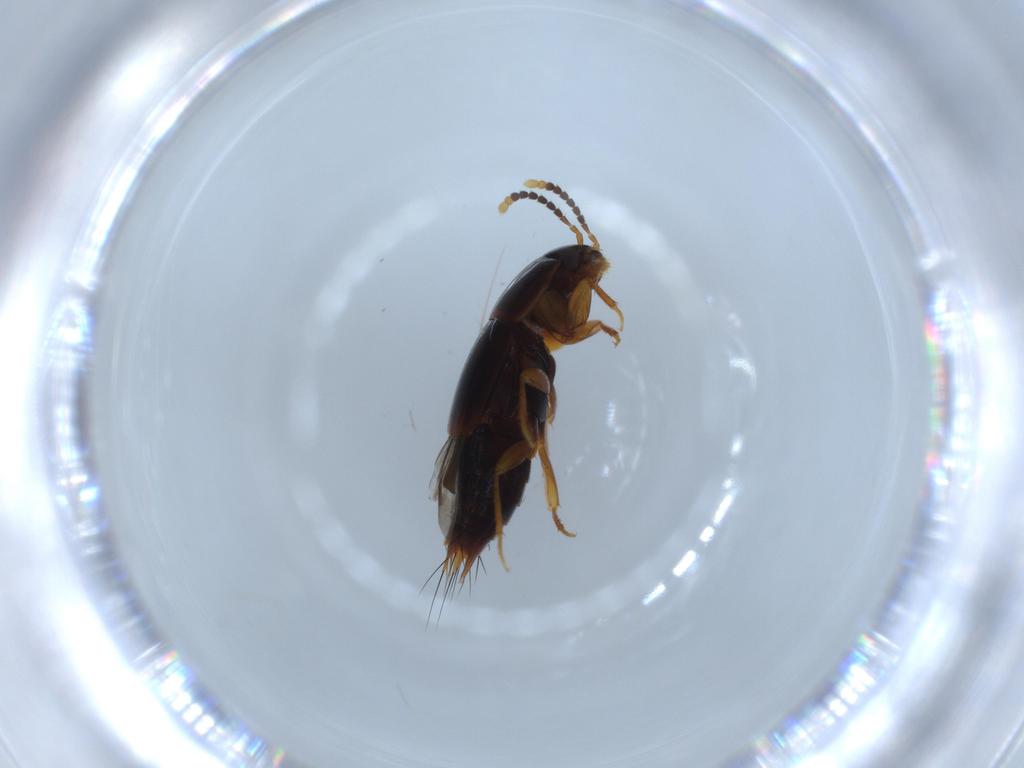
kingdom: Animalia
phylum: Arthropoda
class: Insecta
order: Coleoptera
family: Staphylinidae
